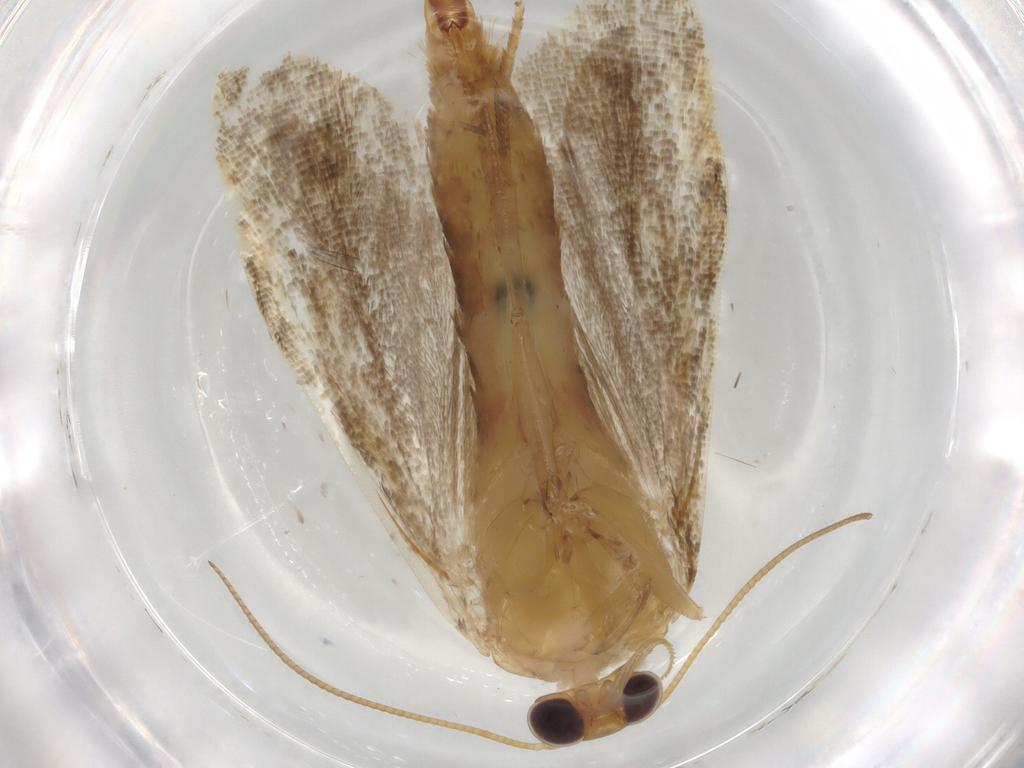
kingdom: Animalia
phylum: Arthropoda
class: Insecta
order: Lepidoptera
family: Tortricidae
